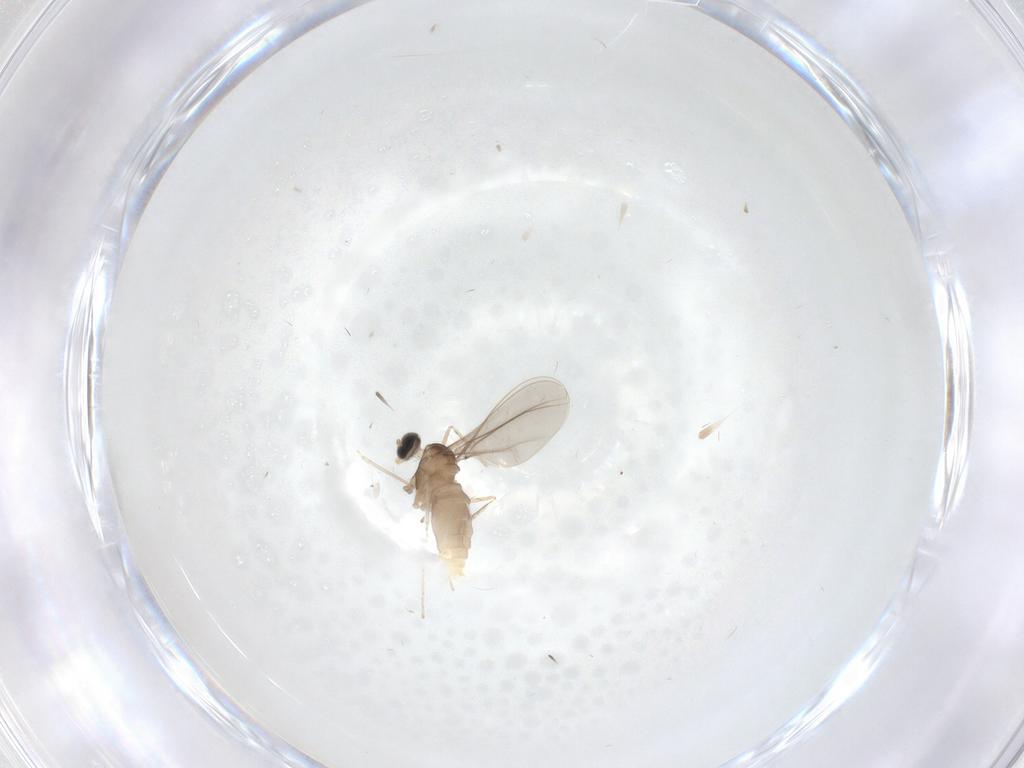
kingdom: Animalia
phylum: Arthropoda
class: Insecta
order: Diptera
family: Cecidomyiidae
